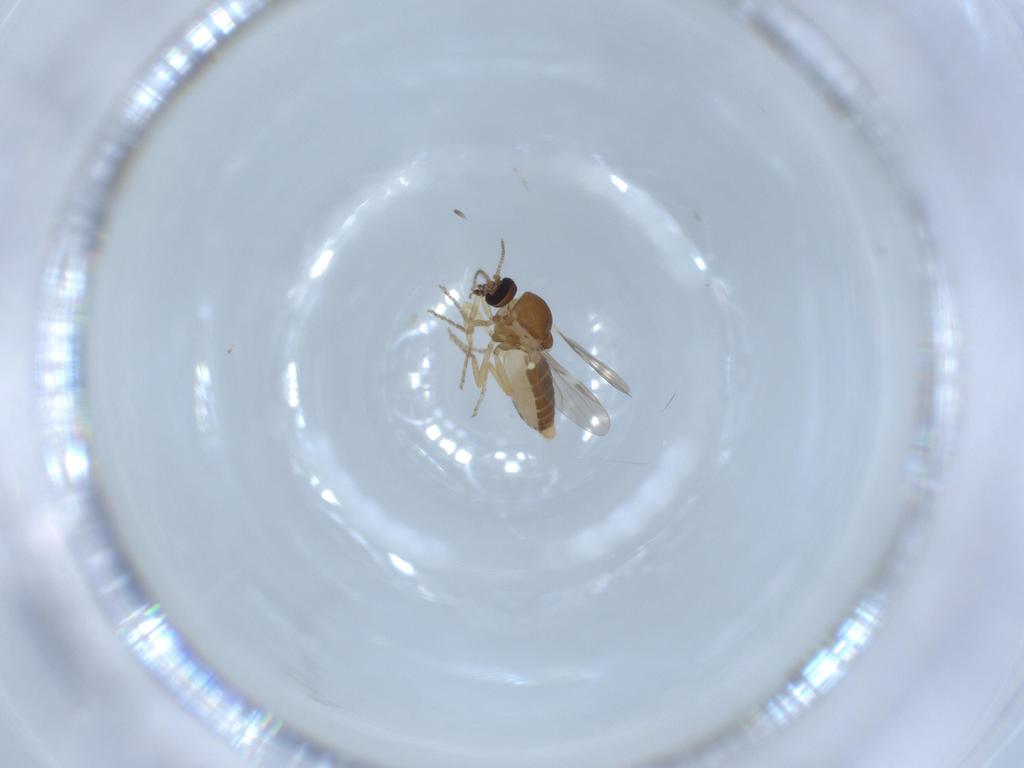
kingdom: Animalia
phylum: Arthropoda
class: Insecta
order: Diptera
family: Ceratopogonidae
